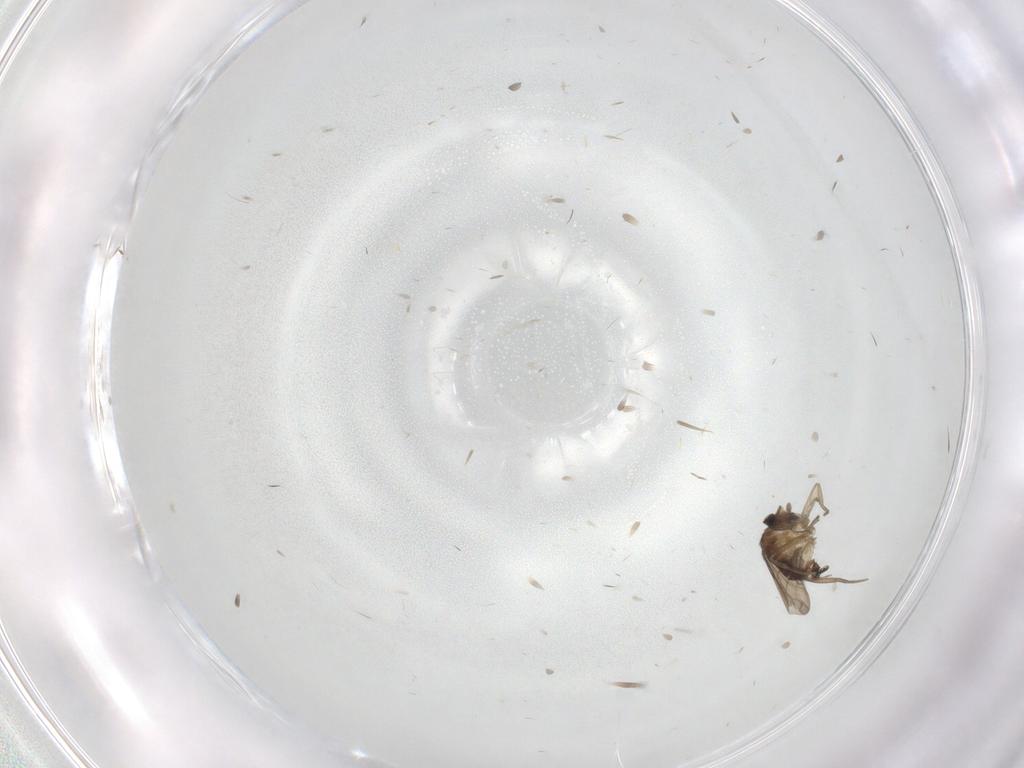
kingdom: Animalia
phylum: Arthropoda
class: Insecta
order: Diptera
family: Phoridae
